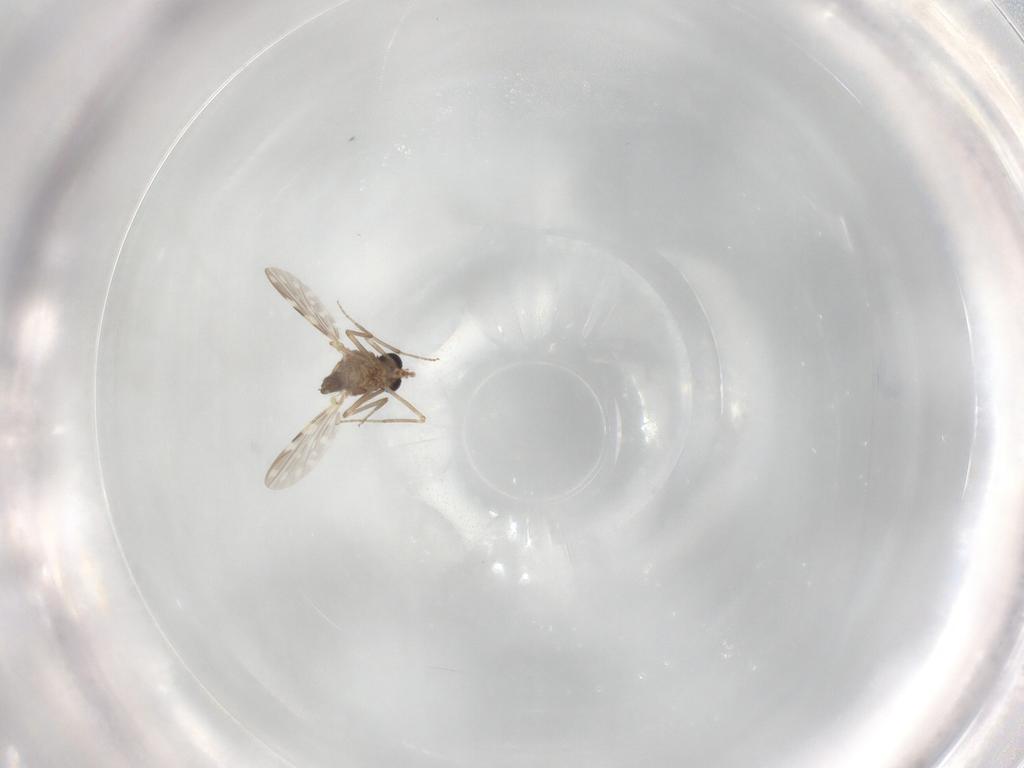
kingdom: Animalia
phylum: Arthropoda
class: Insecta
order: Diptera
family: Ceratopogonidae
